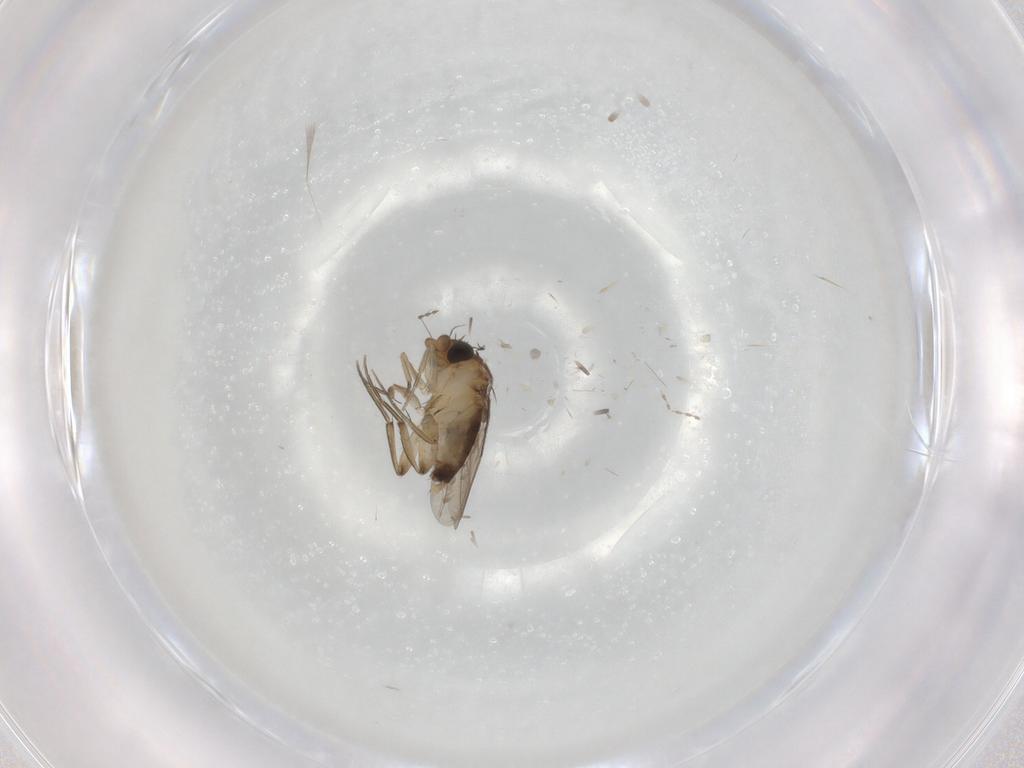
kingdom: Animalia
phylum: Arthropoda
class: Insecta
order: Diptera
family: Phoridae
